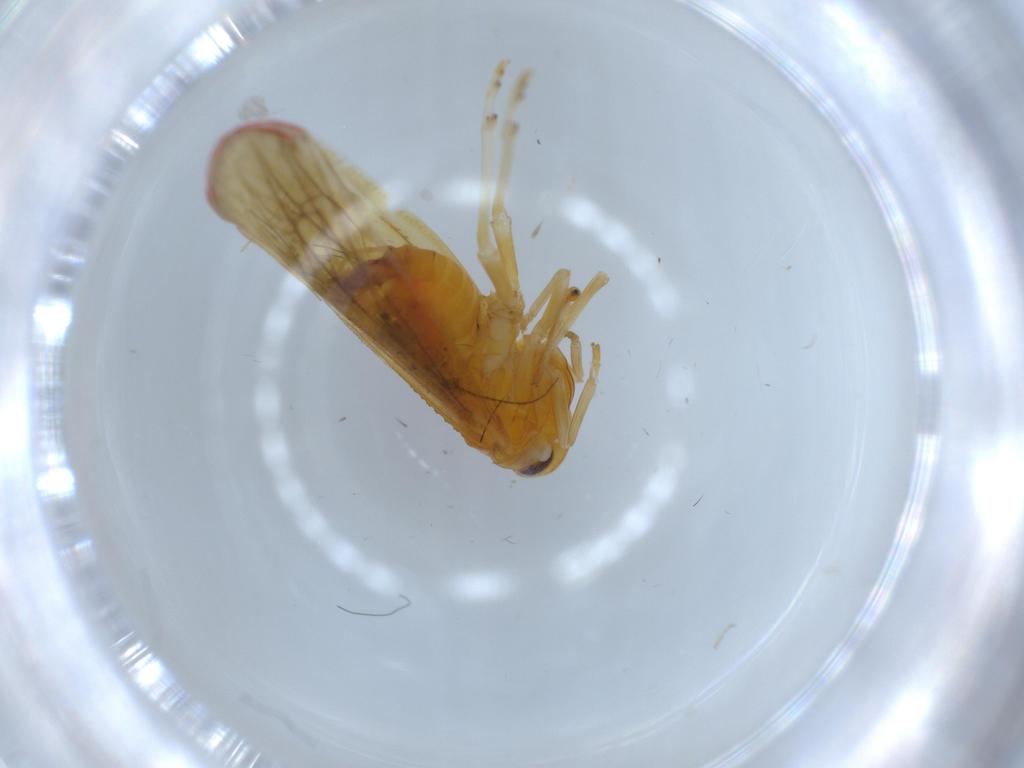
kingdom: Animalia
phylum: Arthropoda
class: Insecta
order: Hemiptera
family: Derbidae
